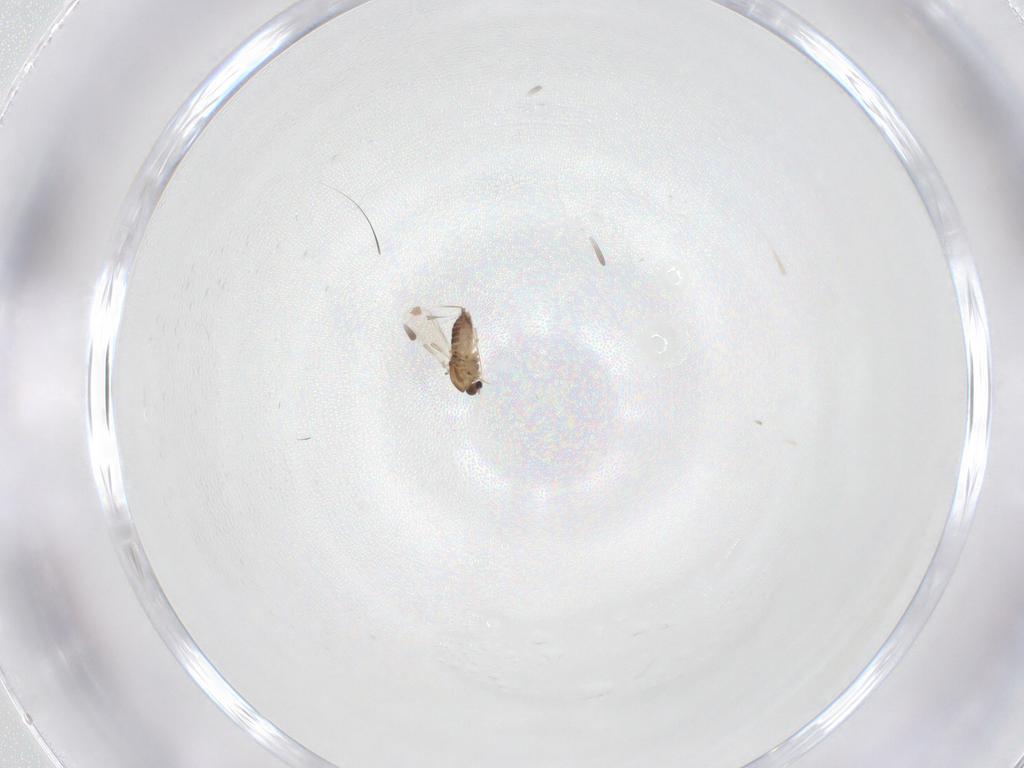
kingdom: Animalia
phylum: Arthropoda
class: Insecta
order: Diptera
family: Chironomidae
